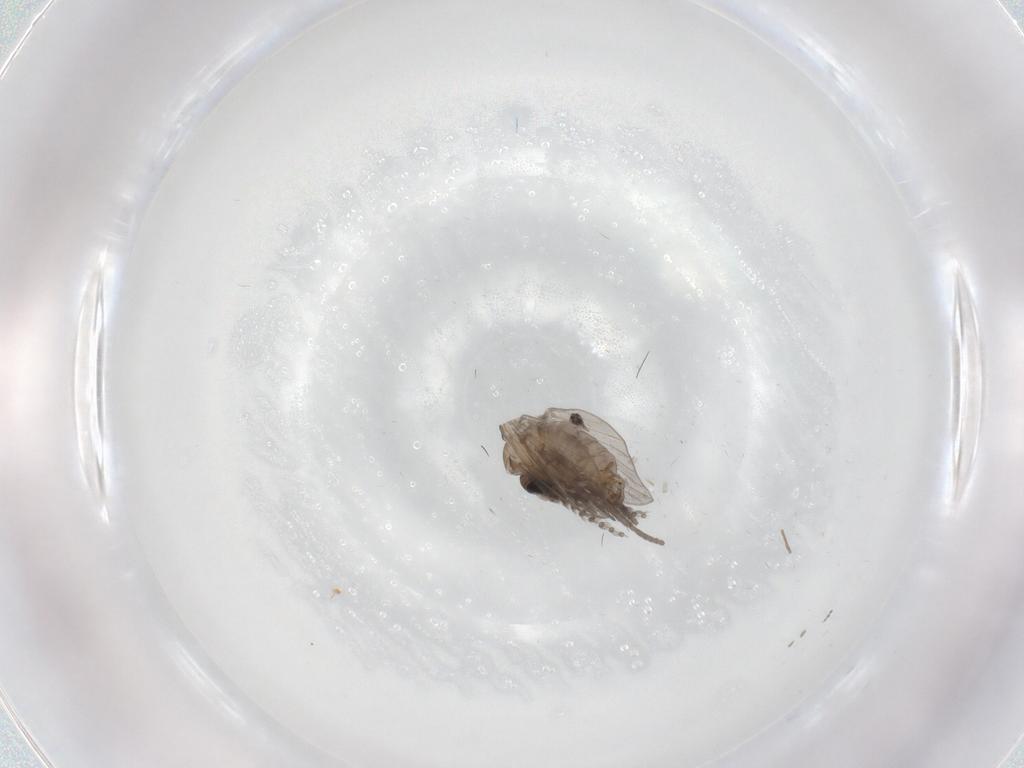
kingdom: Animalia
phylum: Arthropoda
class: Insecta
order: Diptera
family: Psychodidae
